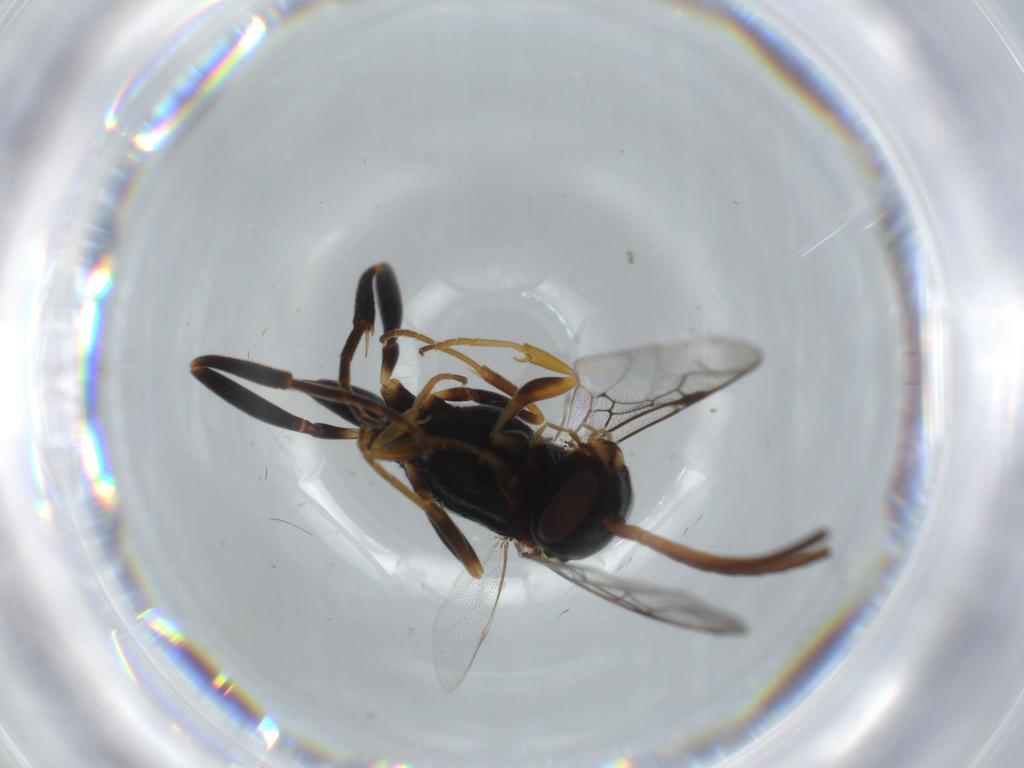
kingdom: Animalia
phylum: Arthropoda
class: Insecta
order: Hymenoptera
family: Evaniidae
